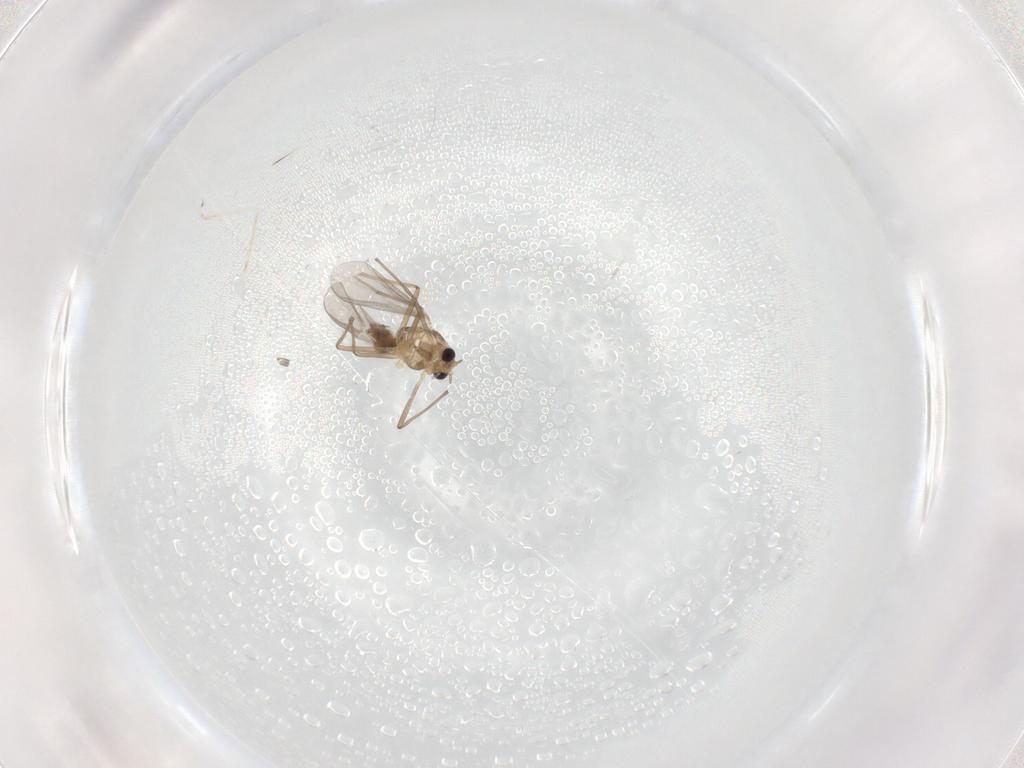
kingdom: Animalia
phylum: Arthropoda
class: Insecta
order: Diptera
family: Chironomidae
